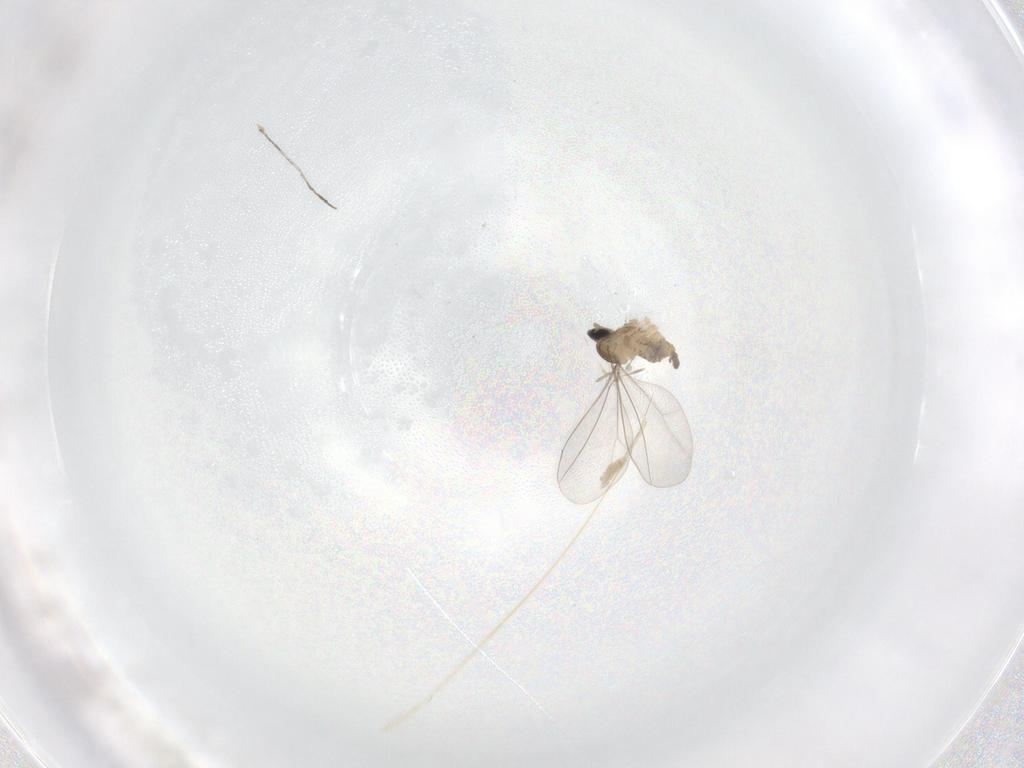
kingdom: Animalia
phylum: Arthropoda
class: Insecta
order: Diptera
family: Cecidomyiidae
